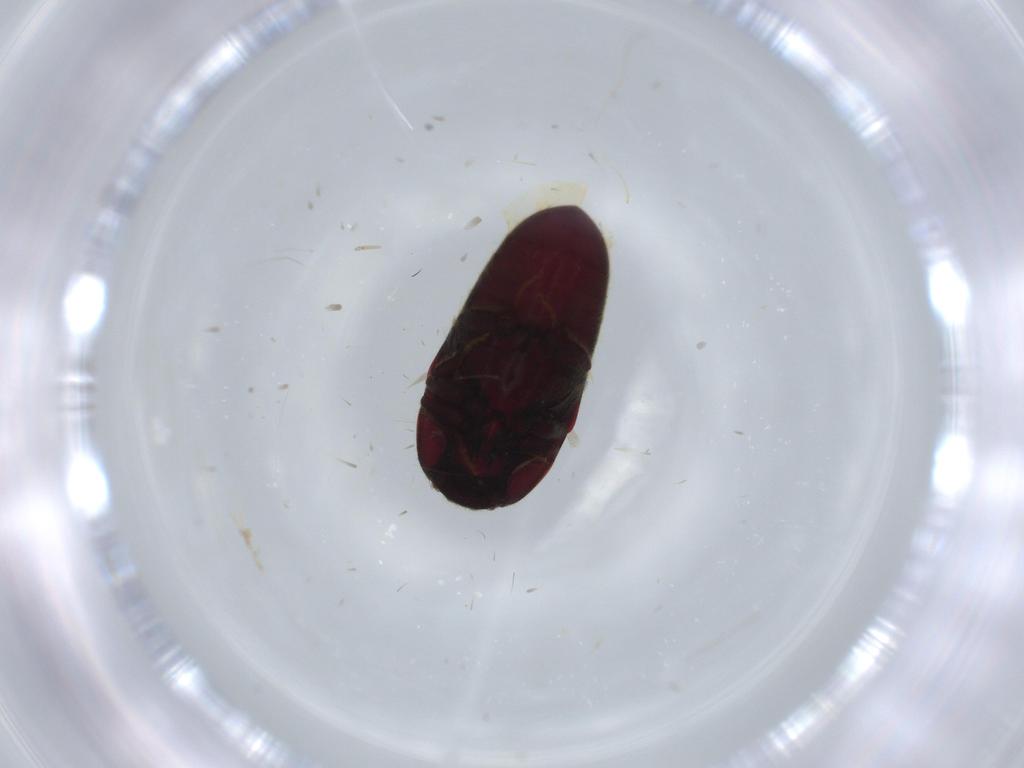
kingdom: Animalia
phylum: Arthropoda
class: Insecta
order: Coleoptera
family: Throscidae
